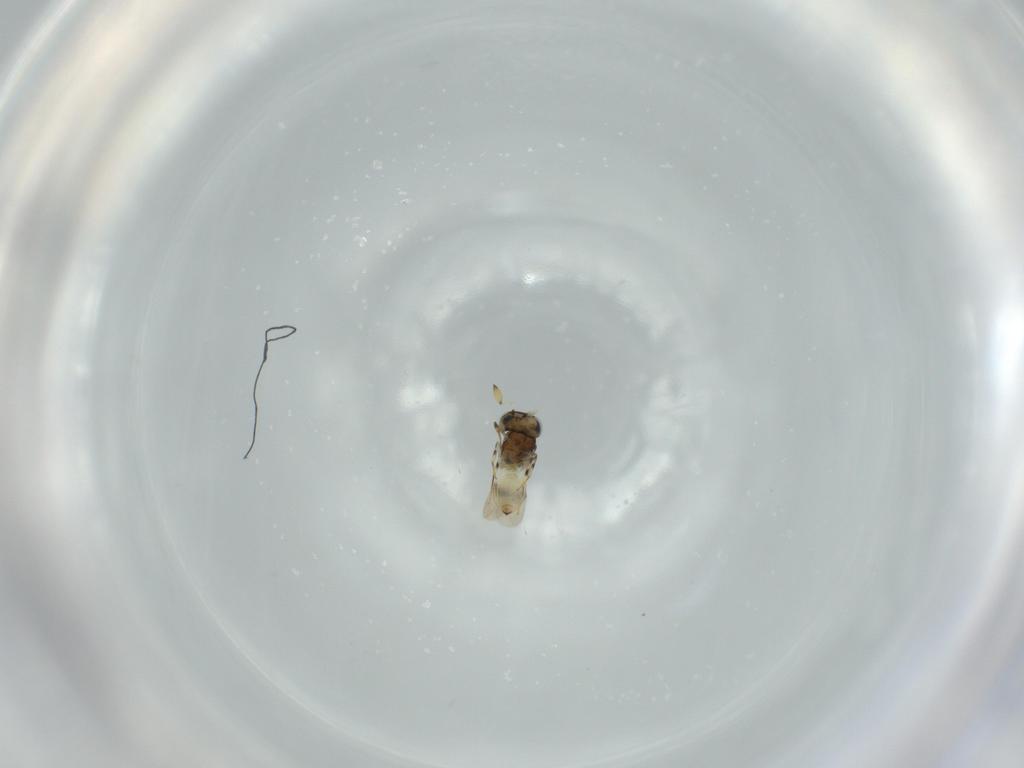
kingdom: Animalia
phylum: Arthropoda
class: Insecta
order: Hymenoptera
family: Scelionidae
